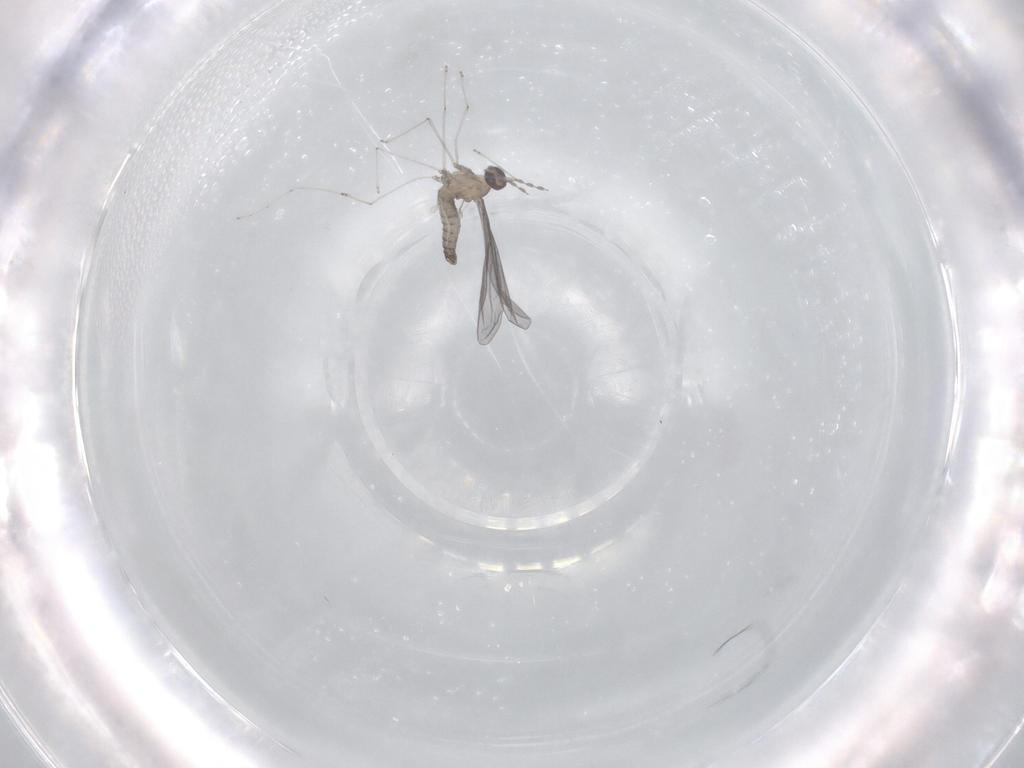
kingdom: Animalia
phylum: Arthropoda
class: Insecta
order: Diptera
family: Cecidomyiidae
